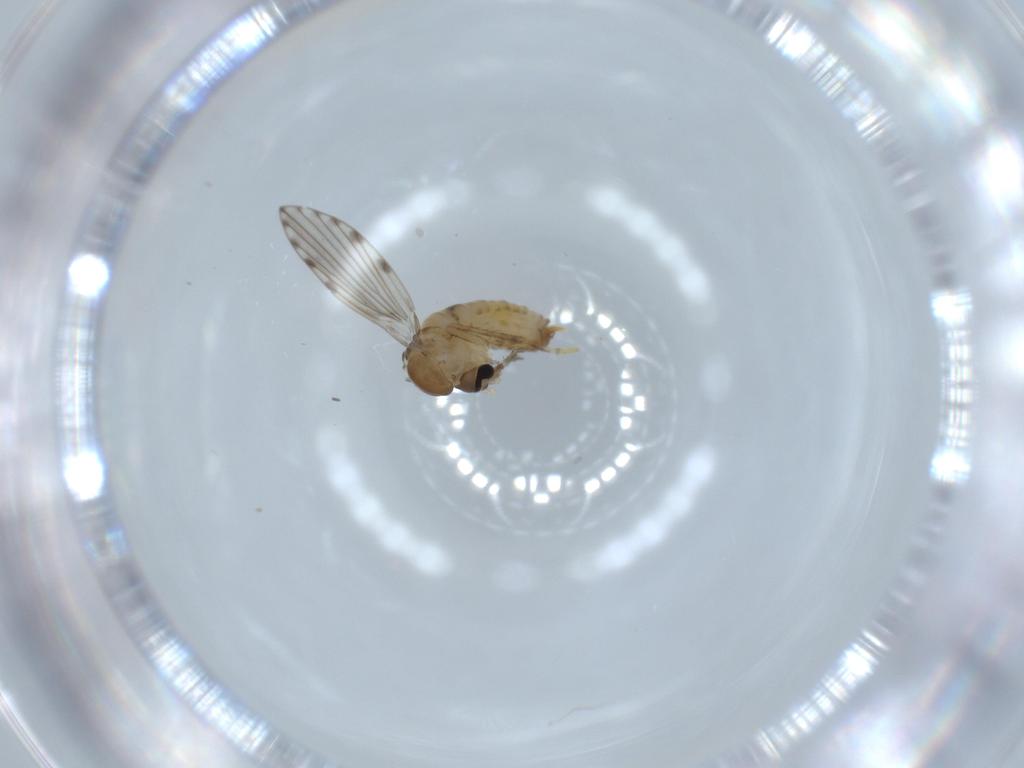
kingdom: Animalia
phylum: Arthropoda
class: Insecta
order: Diptera
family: Psychodidae
